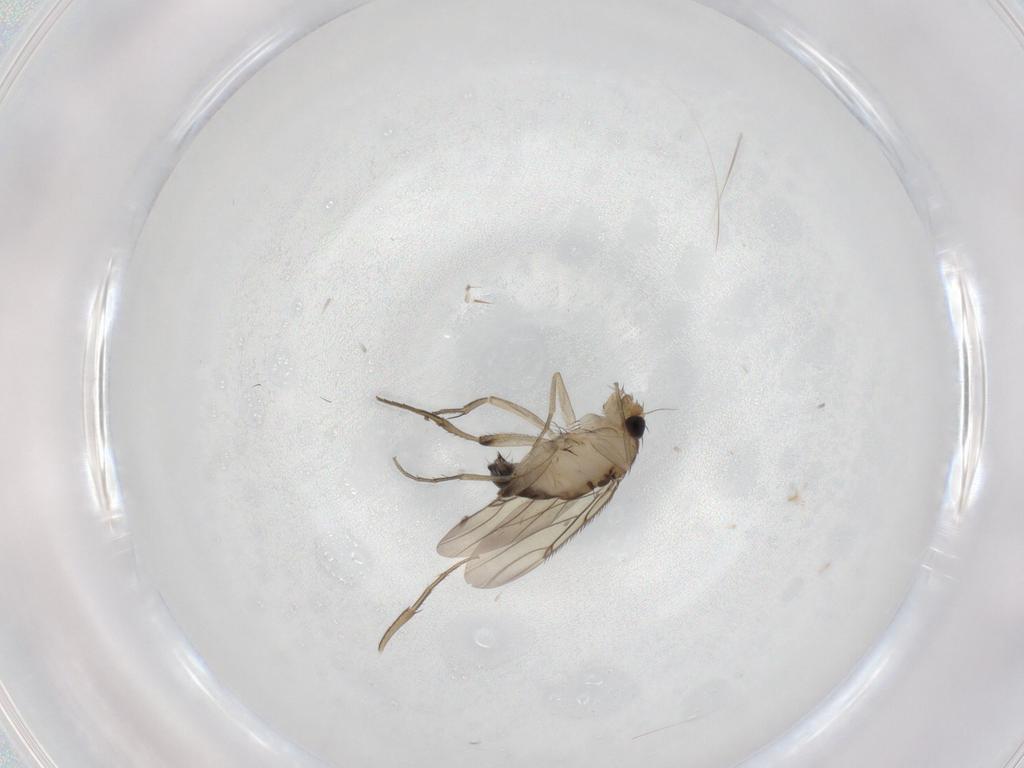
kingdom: Animalia
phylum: Arthropoda
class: Insecta
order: Diptera
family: Phoridae
